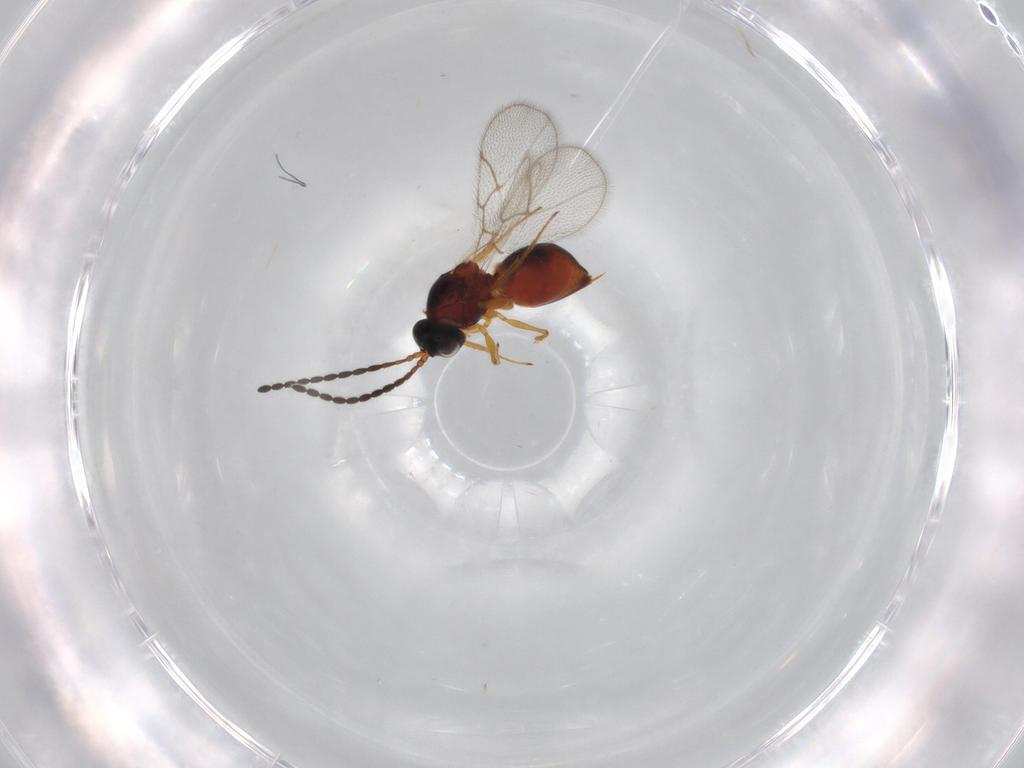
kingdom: Animalia
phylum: Arthropoda
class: Insecta
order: Hymenoptera
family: Figitidae
